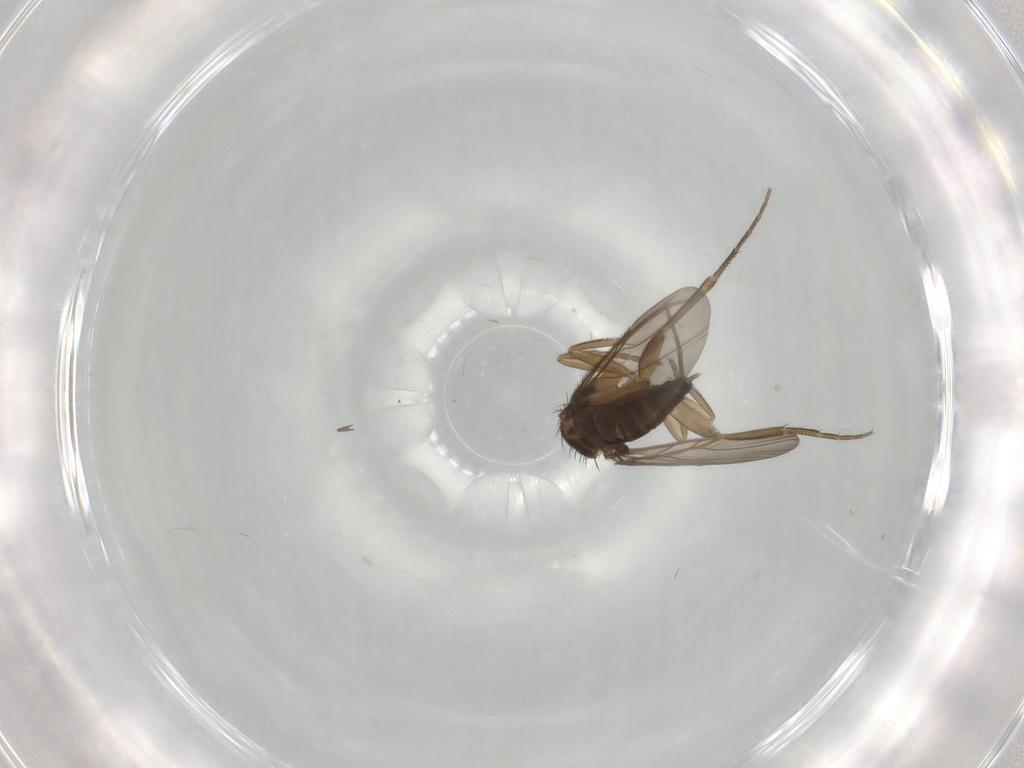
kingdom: Animalia
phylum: Arthropoda
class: Insecta
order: Diptera
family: Phoridae
